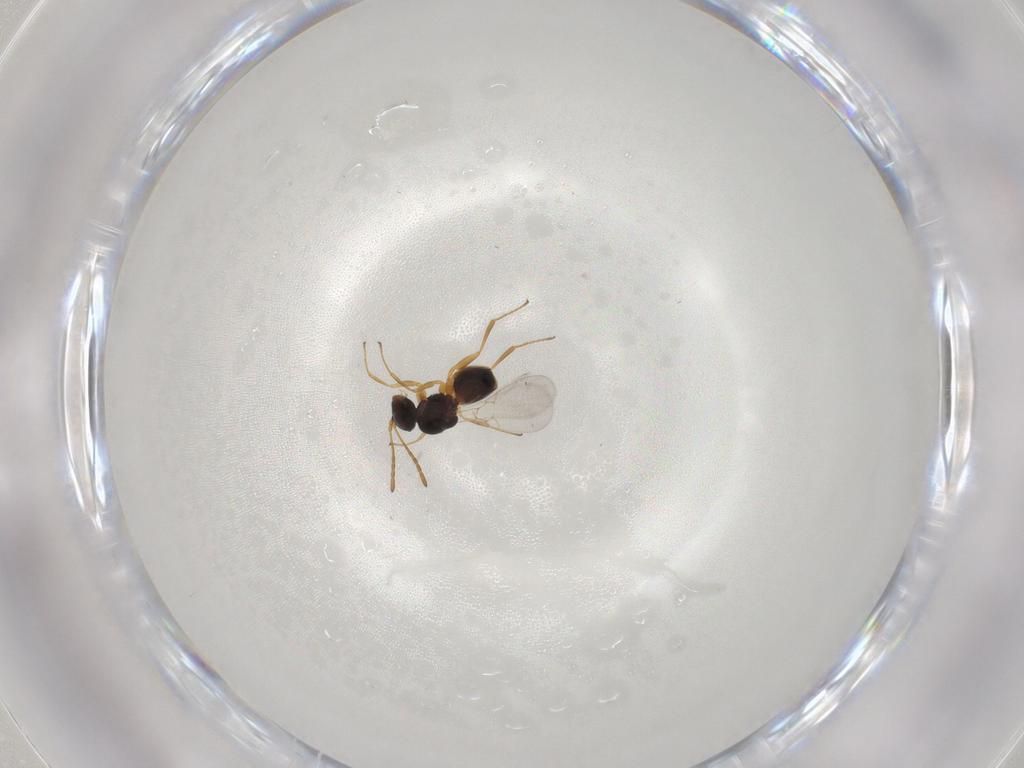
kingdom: Animalia
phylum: Arthropoda
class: Insecta
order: Hymenoptera
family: Figitidae
